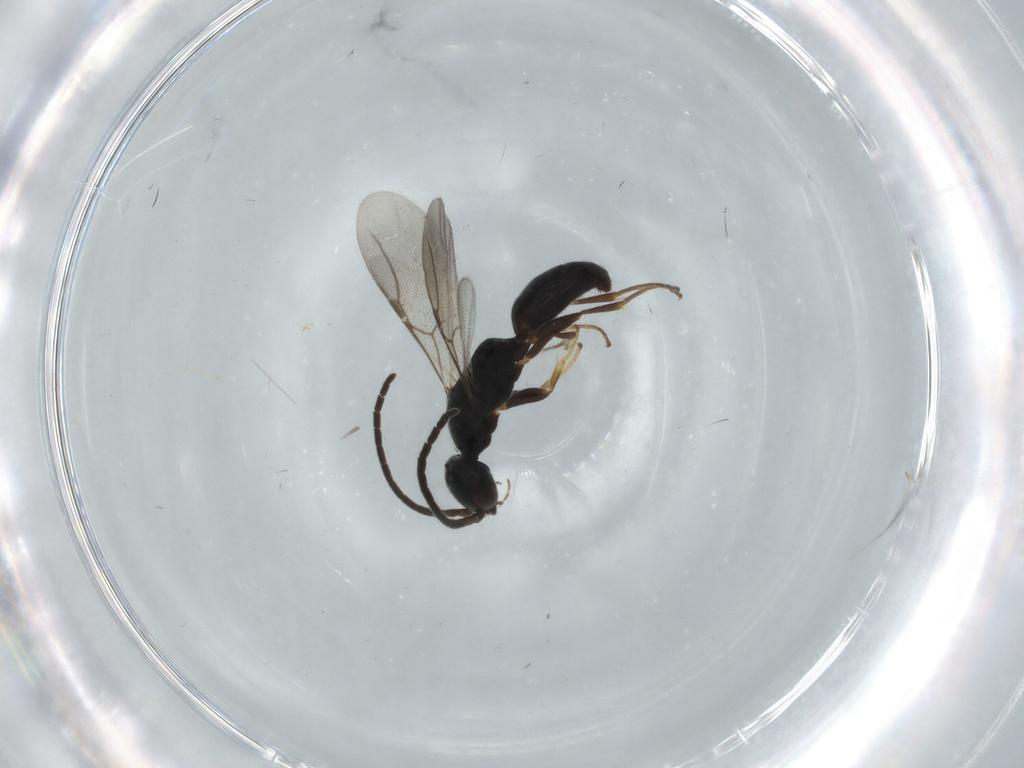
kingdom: Animalia
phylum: Arthropoda
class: Insecta
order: Hymenoptera
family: Bethylidae
